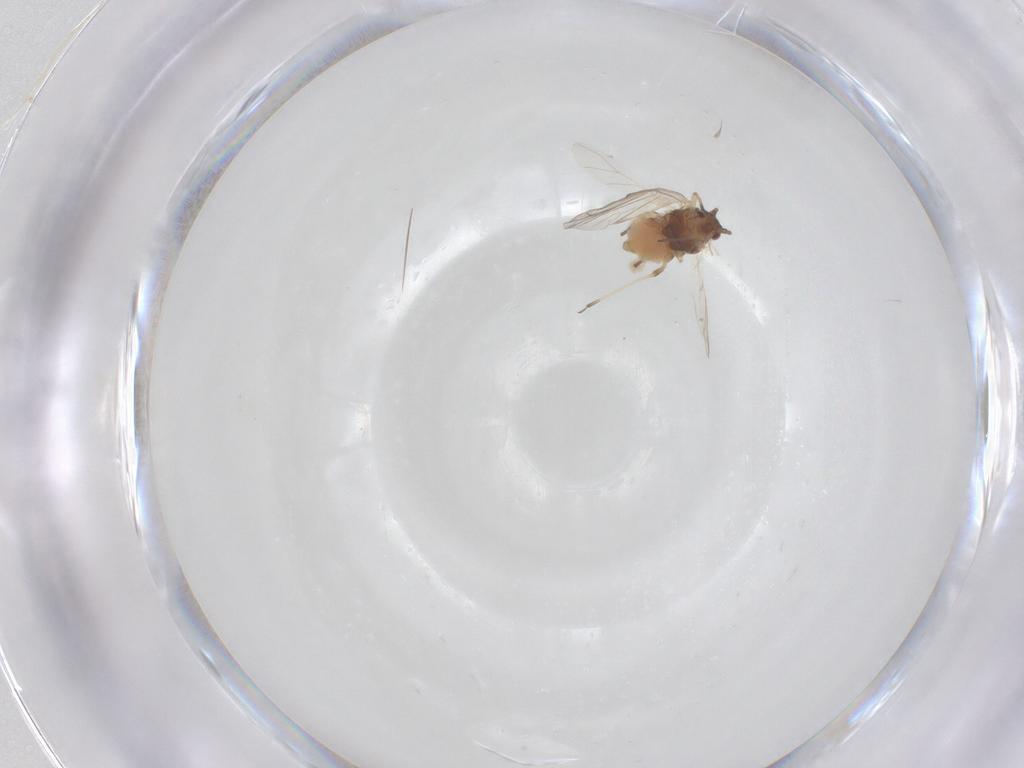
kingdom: Animalia
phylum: Arthropoda
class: Insecta
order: Hemiptera
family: Aphididae
